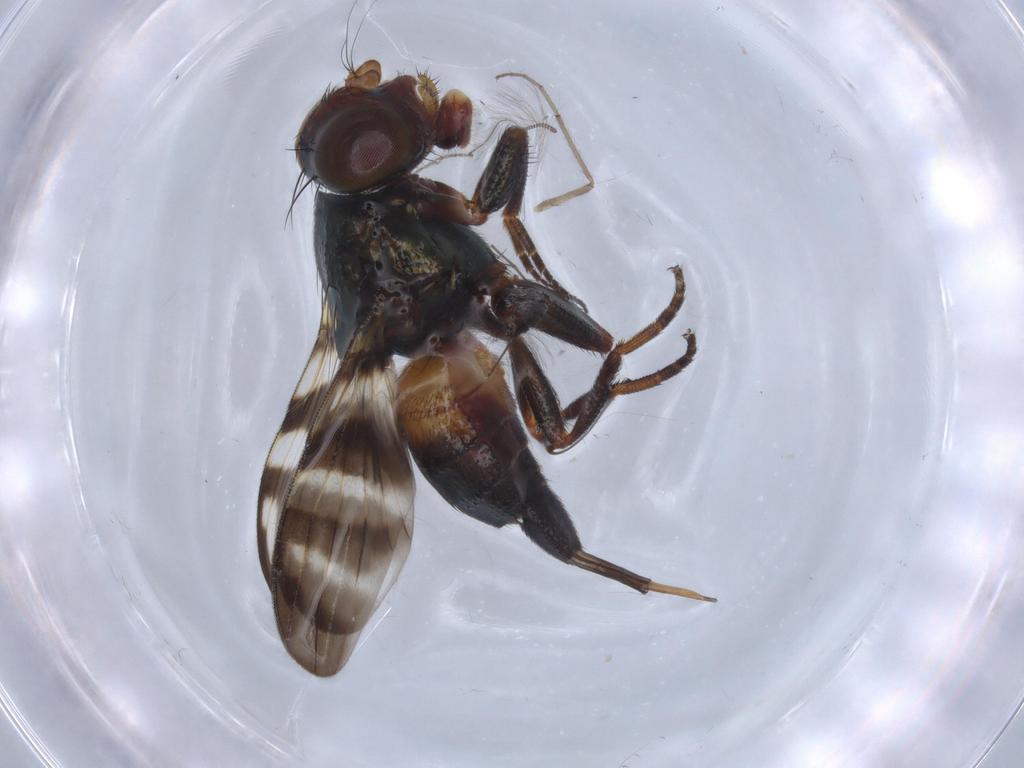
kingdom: Animalia
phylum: Arthropoda
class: Insecta
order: Diptera
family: Chironomidae
